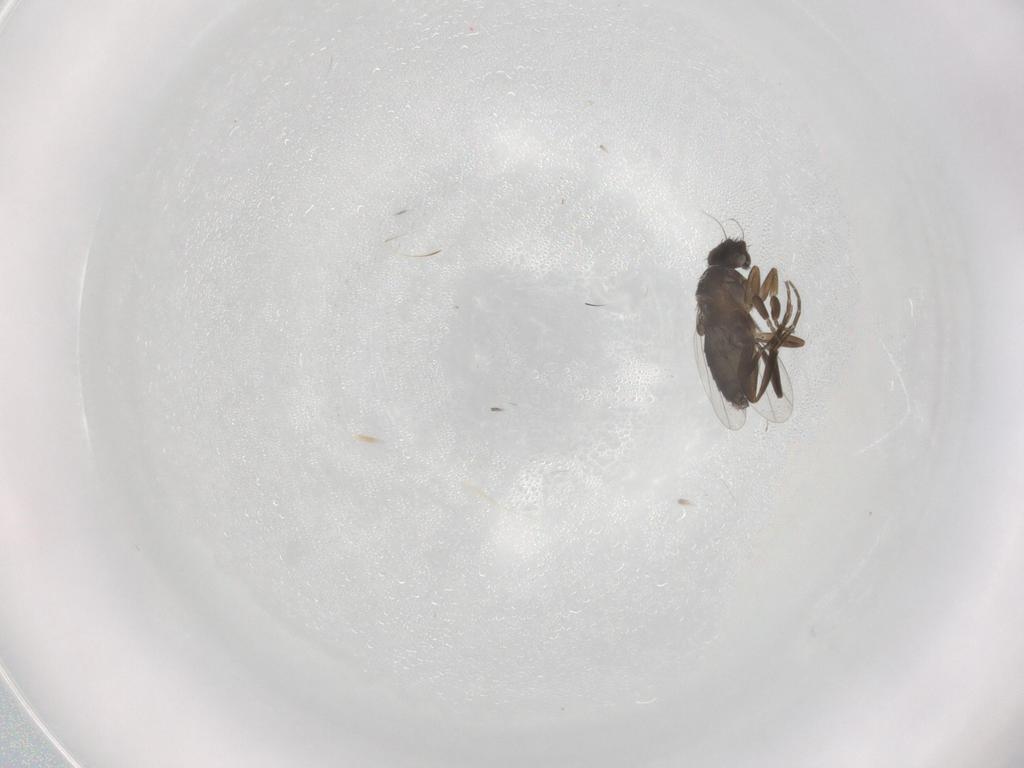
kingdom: Animalia
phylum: Arthropoda
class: Insecta
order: Diptera
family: Phoridae
